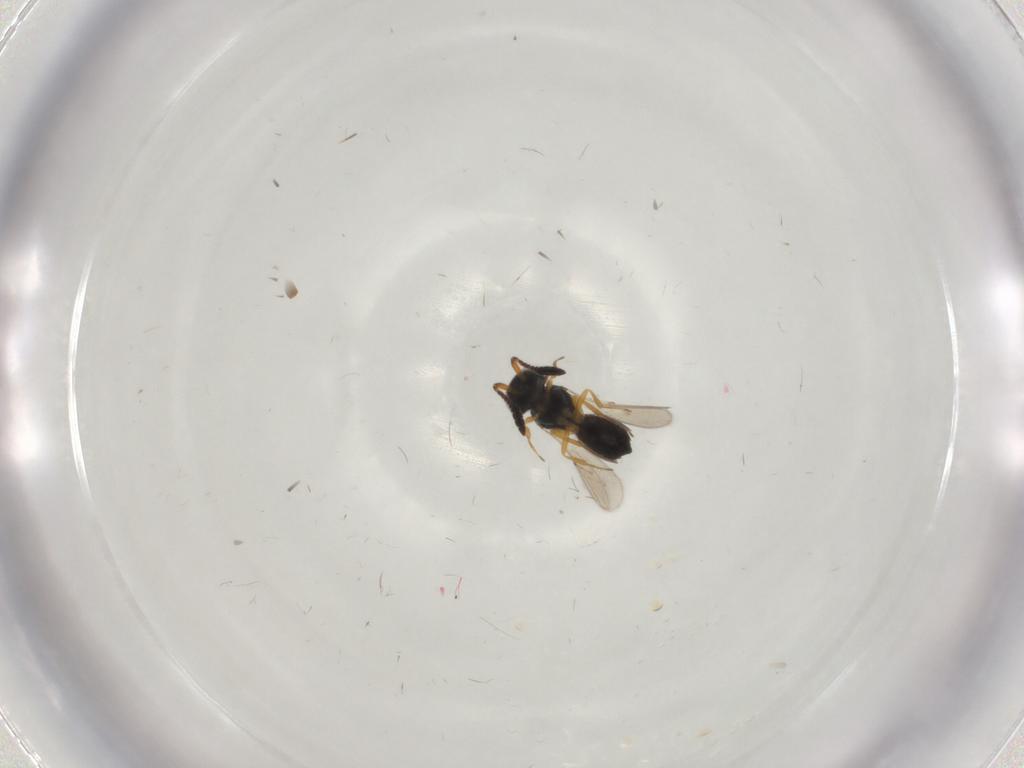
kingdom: Animalia
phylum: Arthropoda
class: Insecta
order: Hymenoptera
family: Scelionidae
